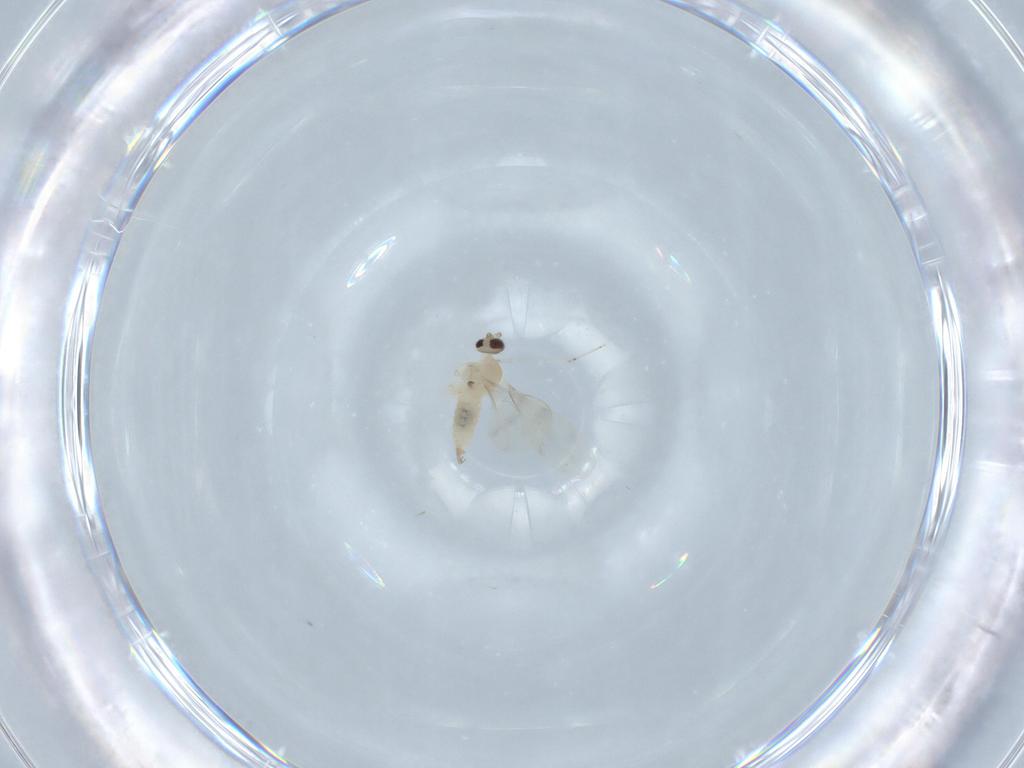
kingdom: Animalia
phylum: Arthropoda
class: Insecta
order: Diptera
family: Cecidomyiidae
